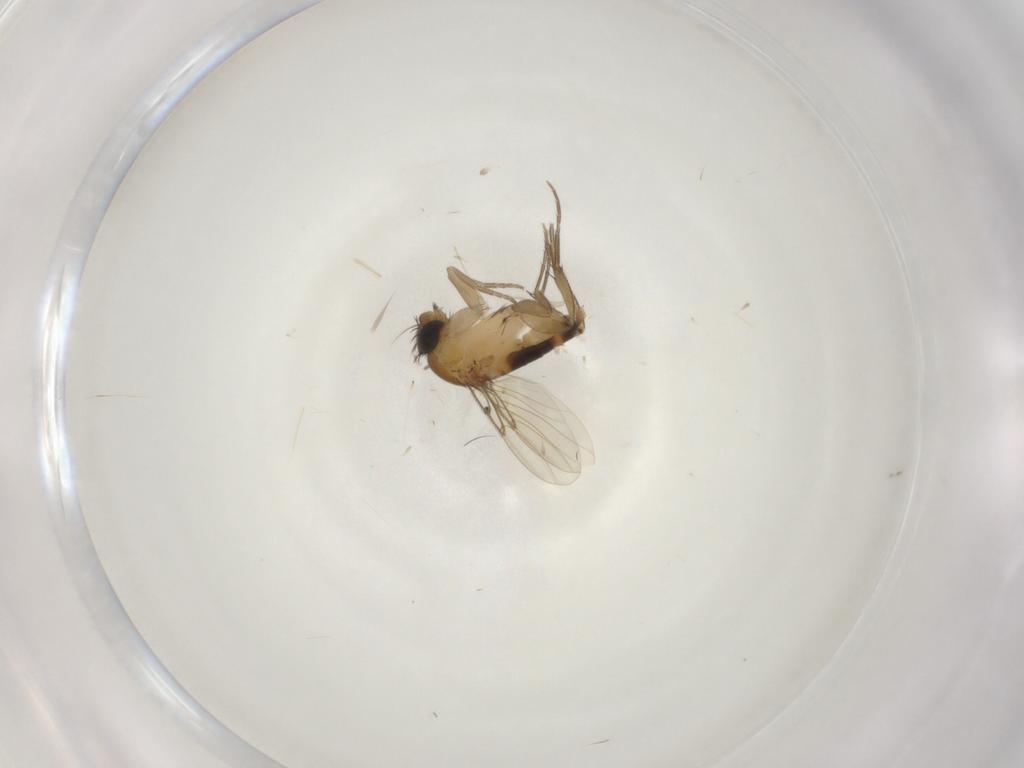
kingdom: Animalia
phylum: Arthropoda
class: Insecta
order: Diptera
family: Phoridae
